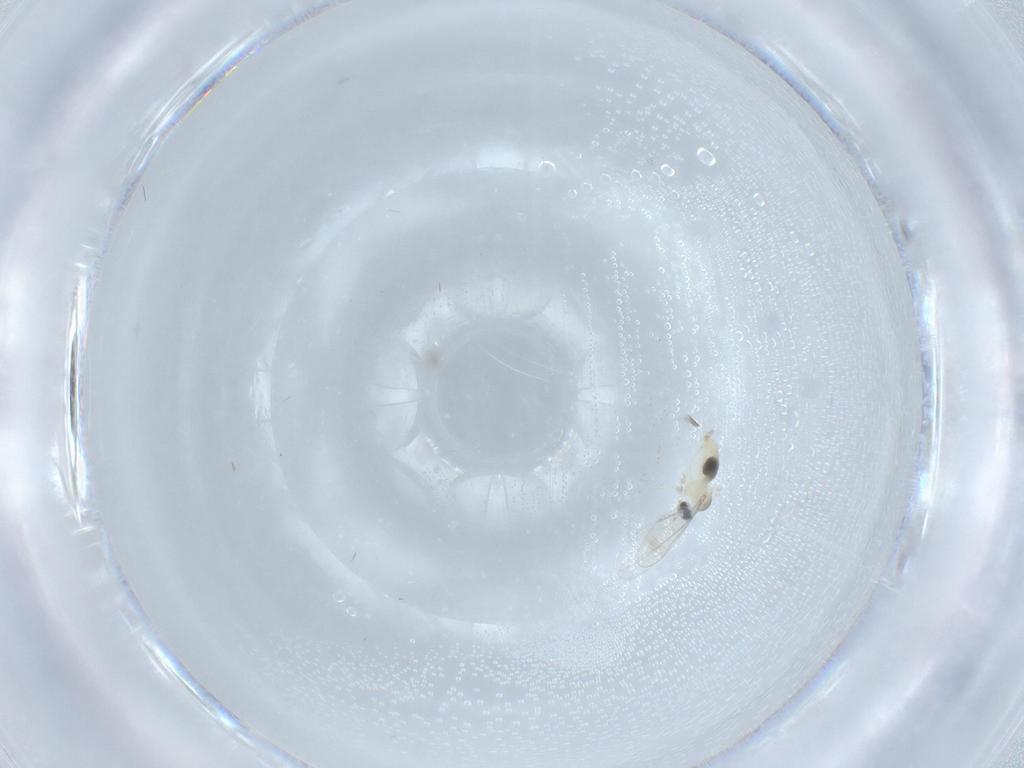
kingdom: Animalia
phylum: Arthropoda
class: Insecta
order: Diptera
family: Cecidomyiidae
